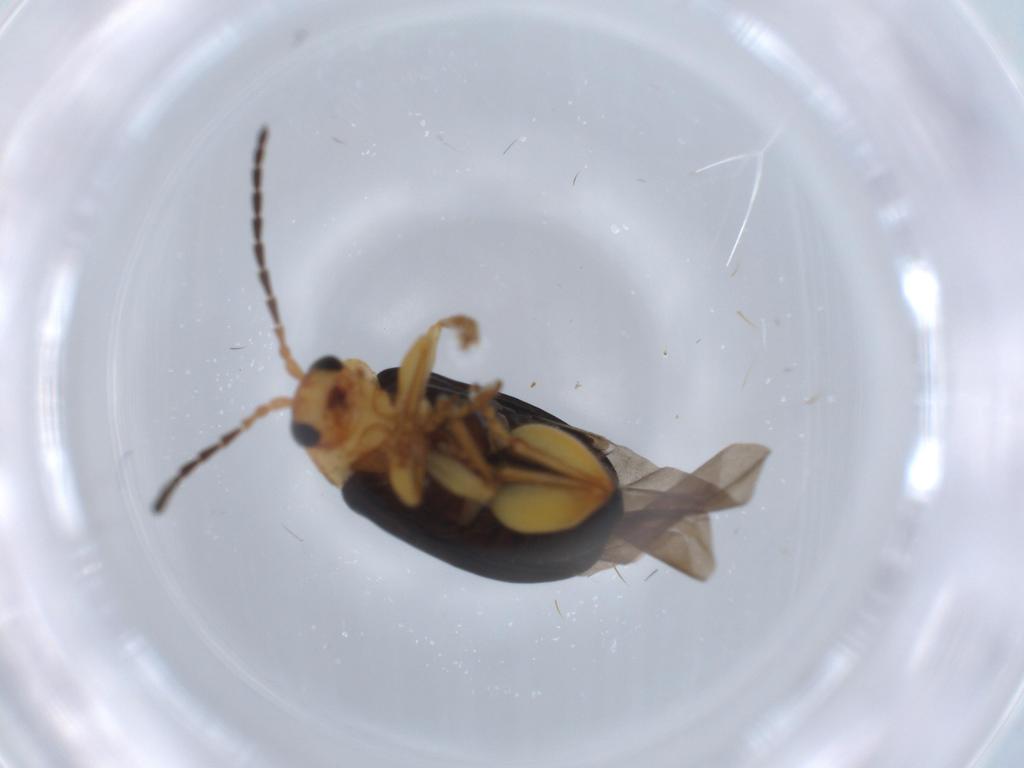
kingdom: Animalia
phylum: Arthropoda
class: Insecta
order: Coleoptera
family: Chrysomelidae
